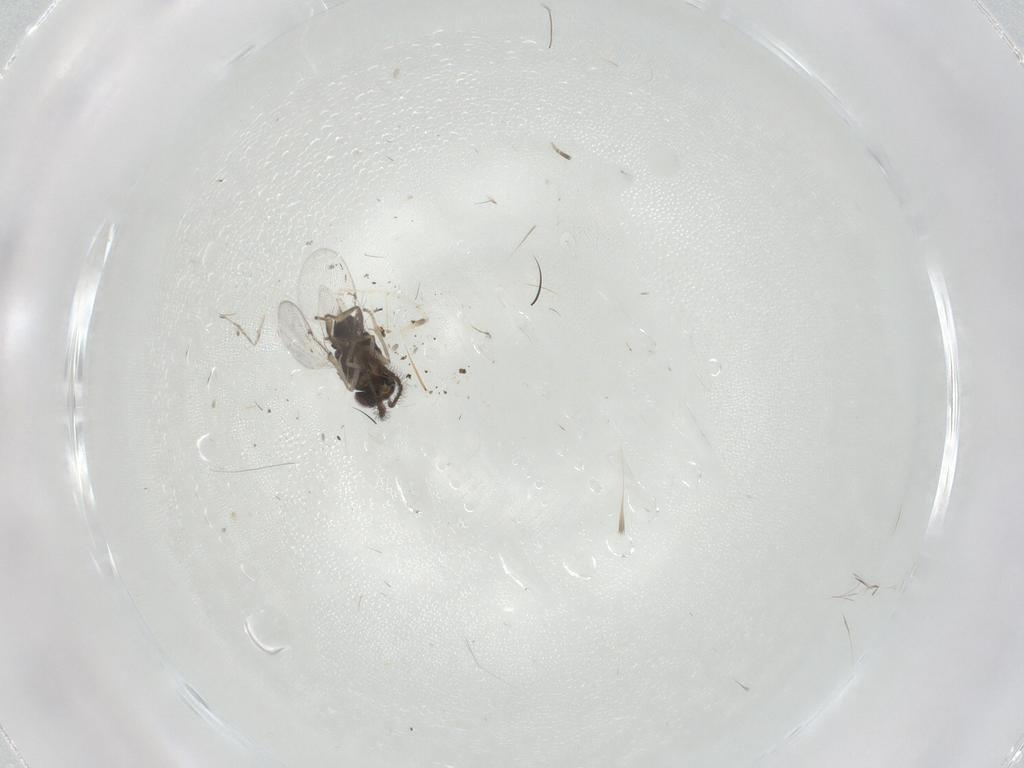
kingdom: Animalia
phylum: Arthropoda
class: Insecta
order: Hymenoptera
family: Encyrtidae
